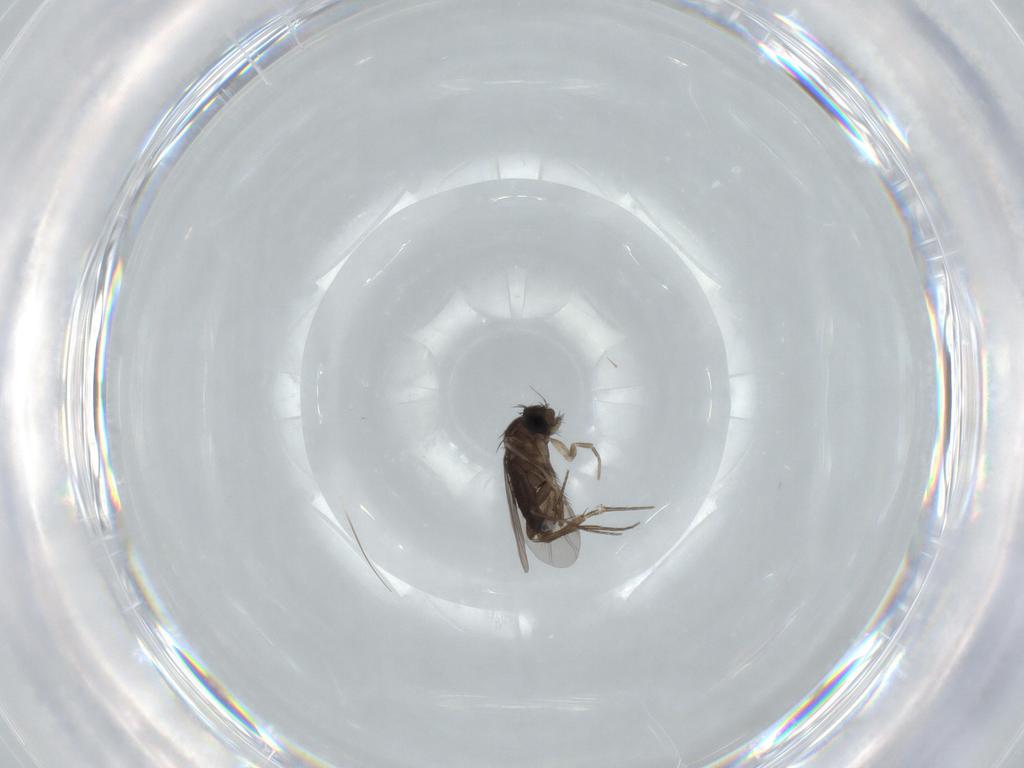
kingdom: Animalia
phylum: Arthropoda
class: Insecta
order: Diptera
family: Phoridae
